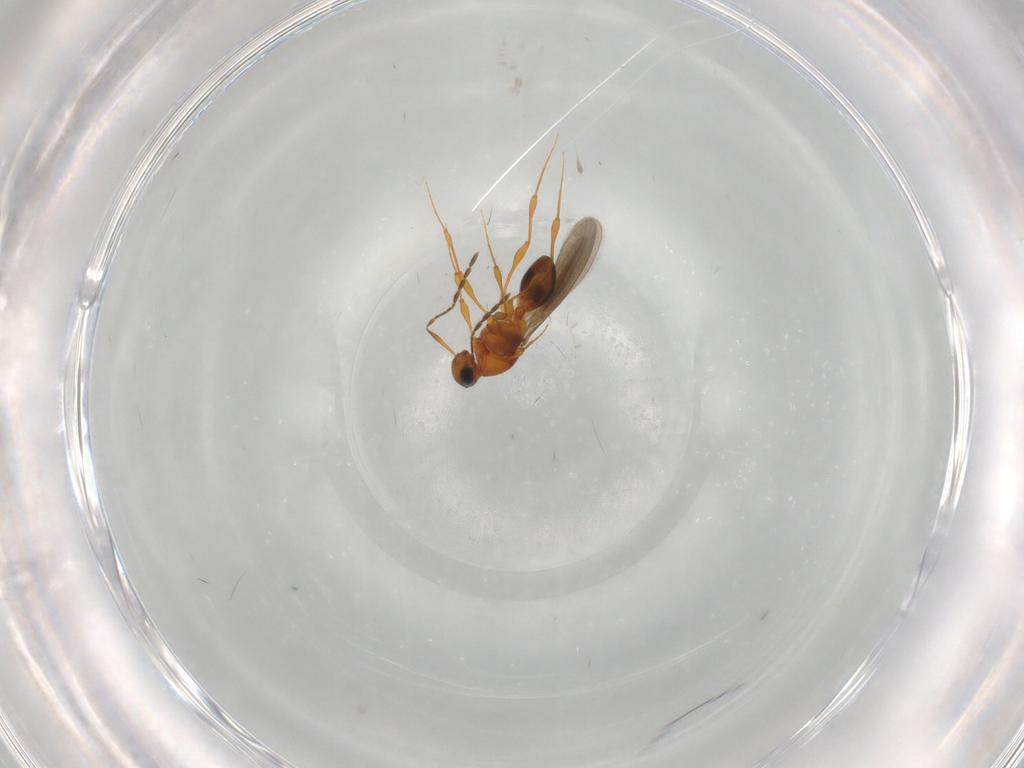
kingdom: Animalia
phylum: Arthropoda
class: Insecta
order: Hymenoptera
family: Platygastridae
